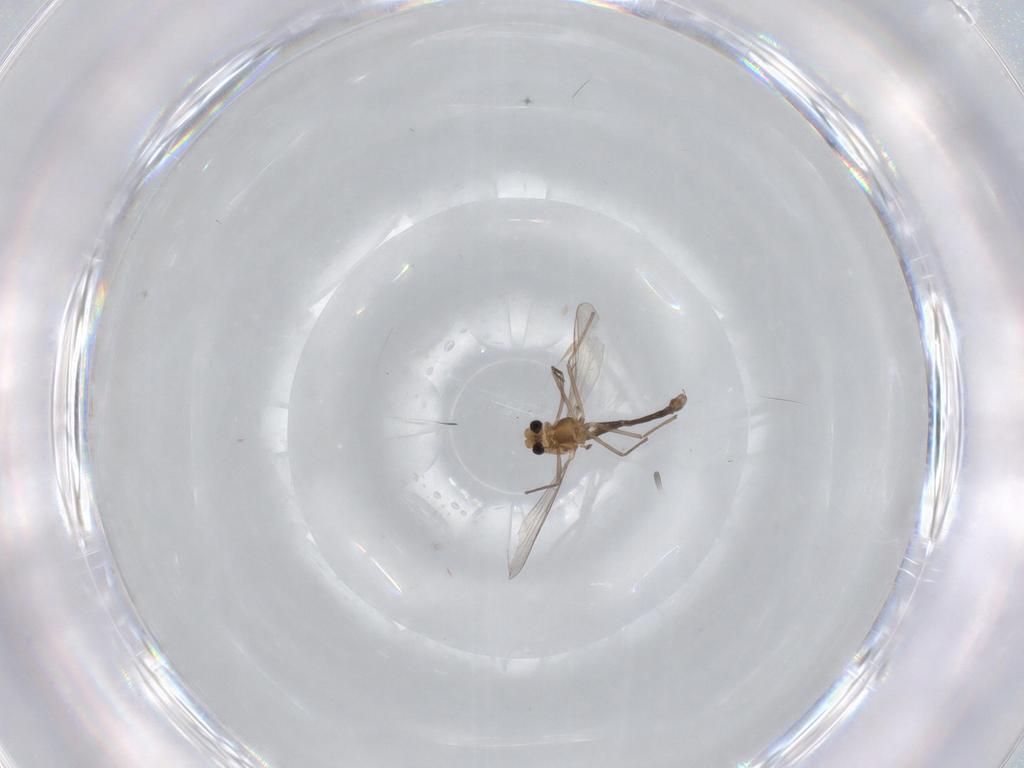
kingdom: Animalia
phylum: Arthropoda
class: Insecta
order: Diptera
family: Chironomidae
